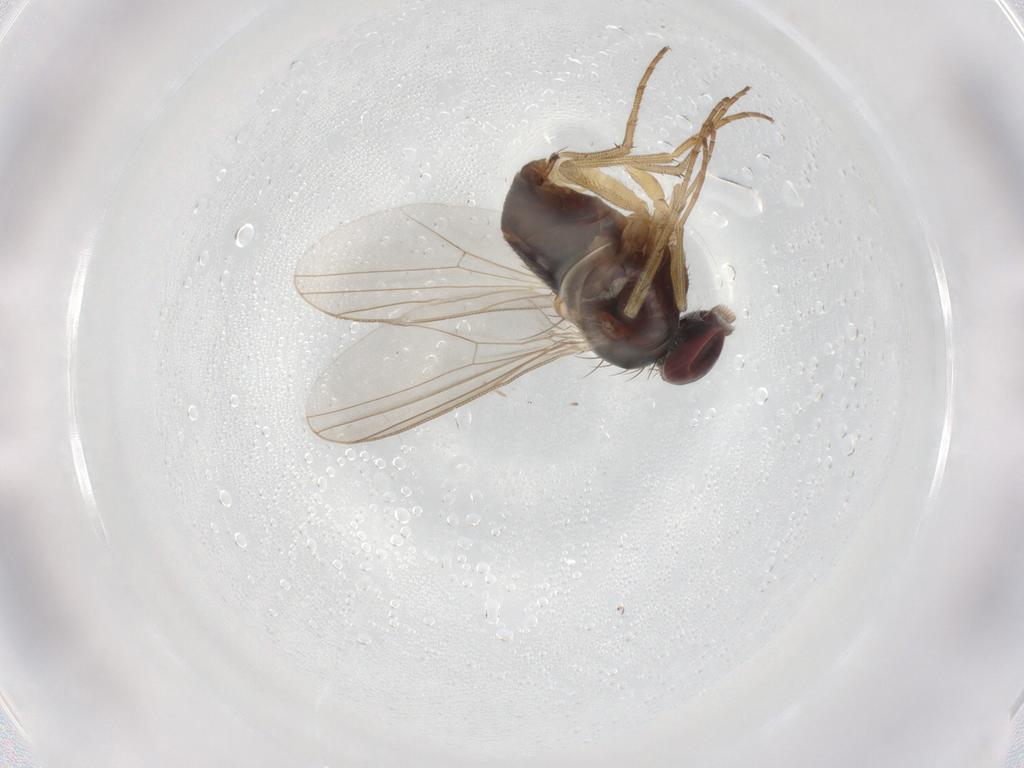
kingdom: Animalia
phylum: Arthropoda
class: Insecta
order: Diptera
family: Dolichopodidae
